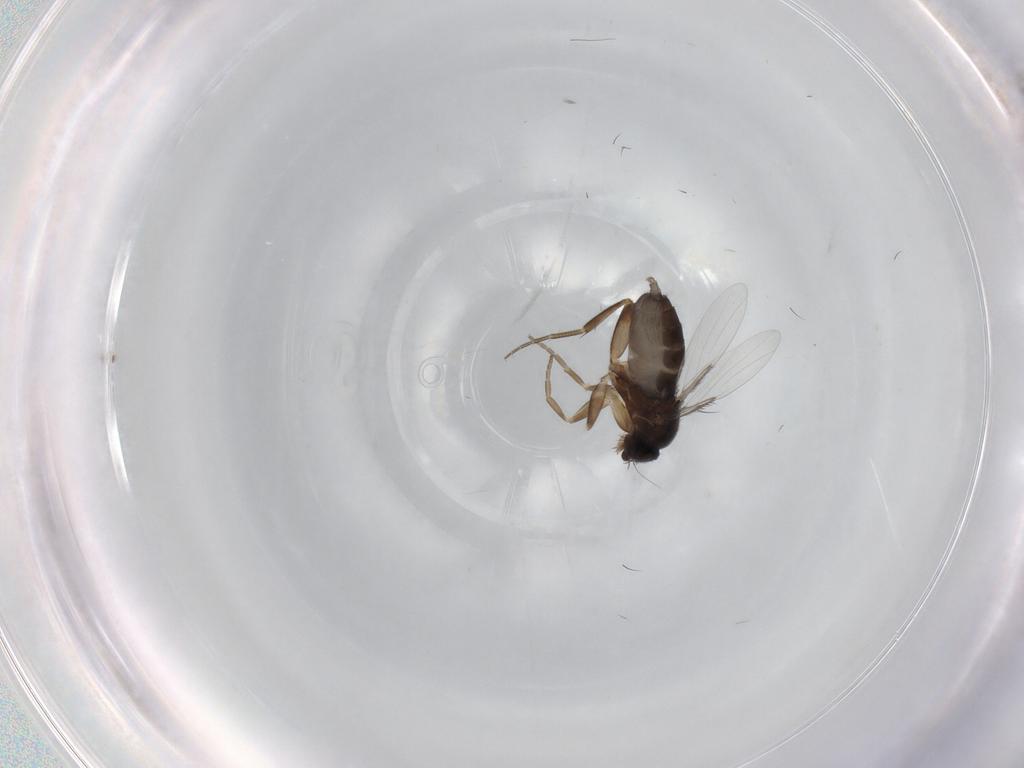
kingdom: Animalia
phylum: Arthropoda
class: Insecta
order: Diptera
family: Phoridae
